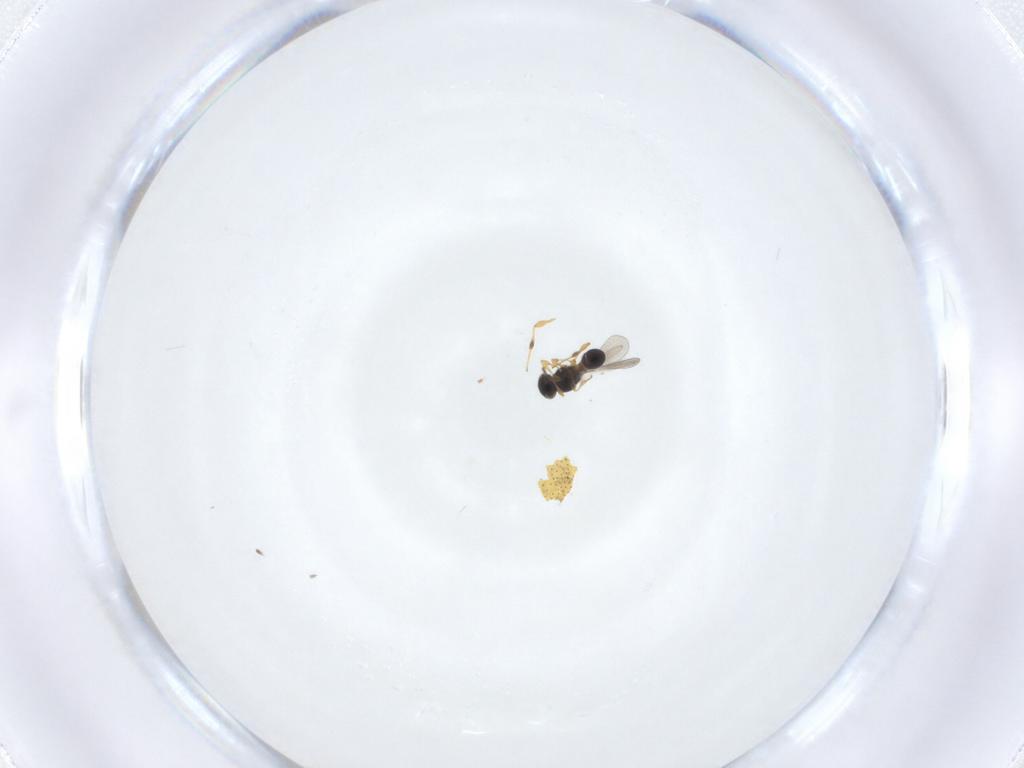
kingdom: Animalia
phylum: Arthropoda
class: Insecta
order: Hymenoptera
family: Platygastridae
